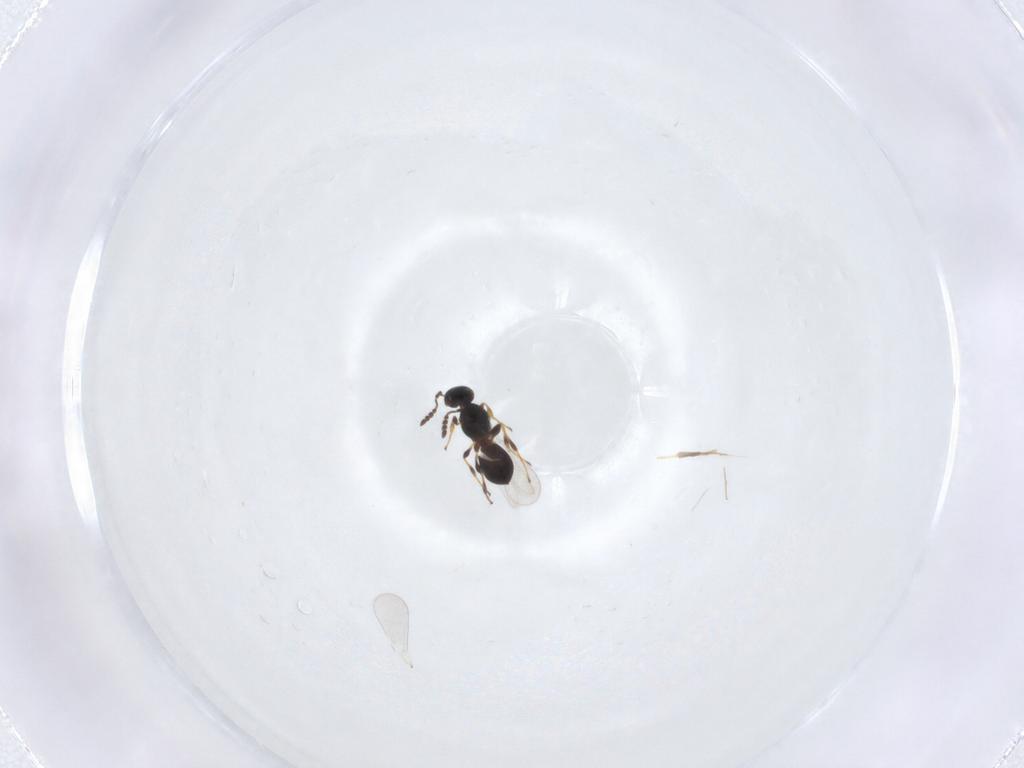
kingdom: Animalia
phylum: Arthropoda
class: Insecta
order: Hymenoptera
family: Platygastridae
